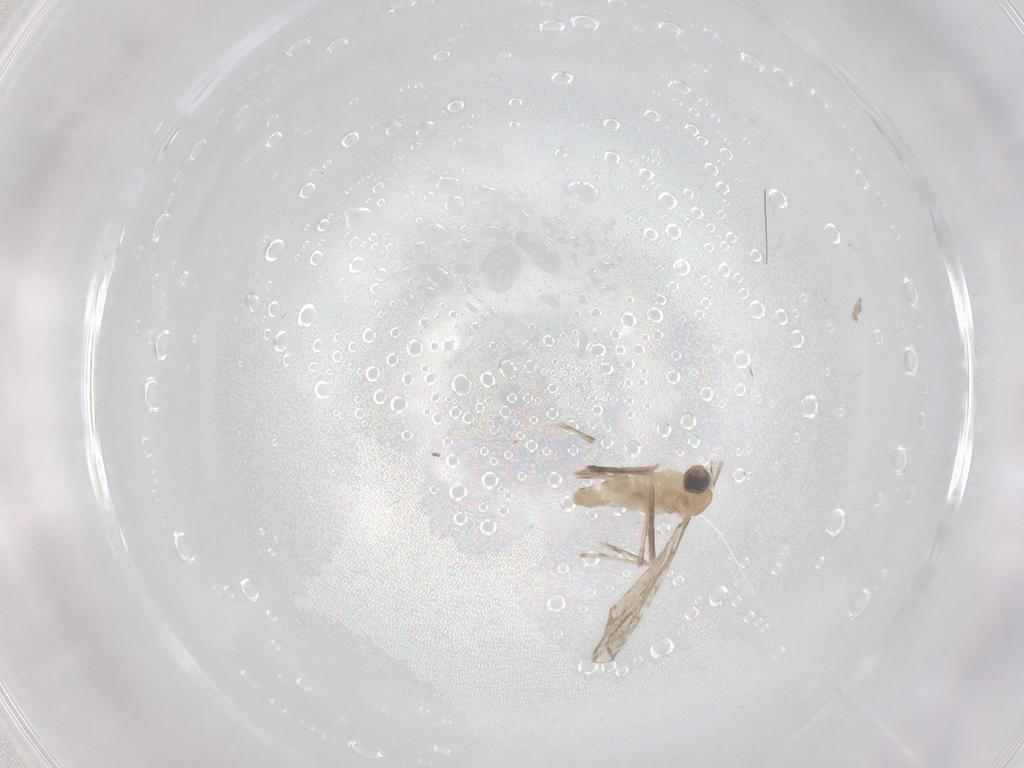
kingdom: Animalia
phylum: Arthropoda
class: Insecta
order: Diptera
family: Cecidomyiidae
